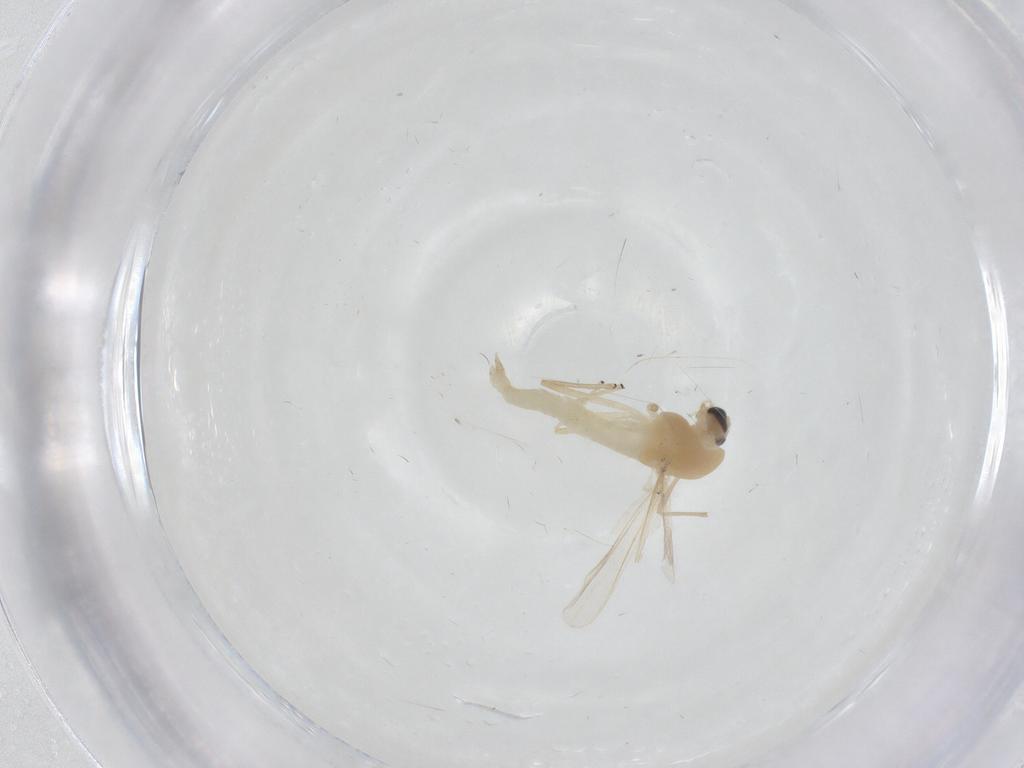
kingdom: Animalia
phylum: Arthropoda
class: Insecta
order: Diptera
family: Chironomidae
